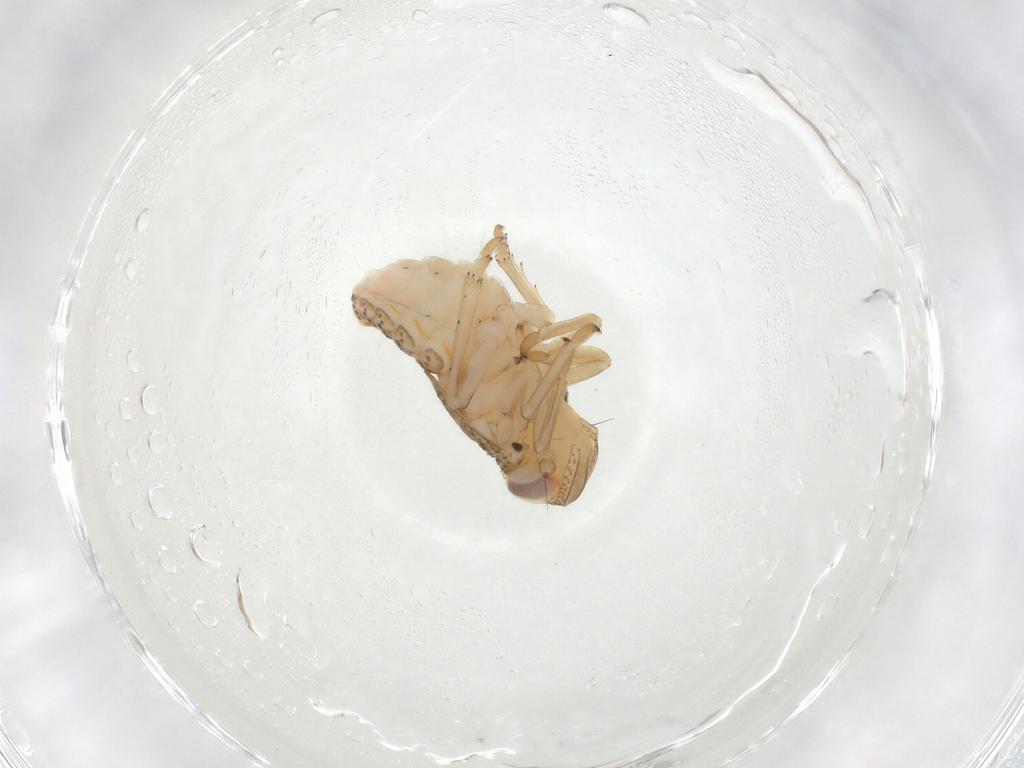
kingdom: Animalia
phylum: Arthropoda
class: Insecta
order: Hemiptera
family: Issidae
